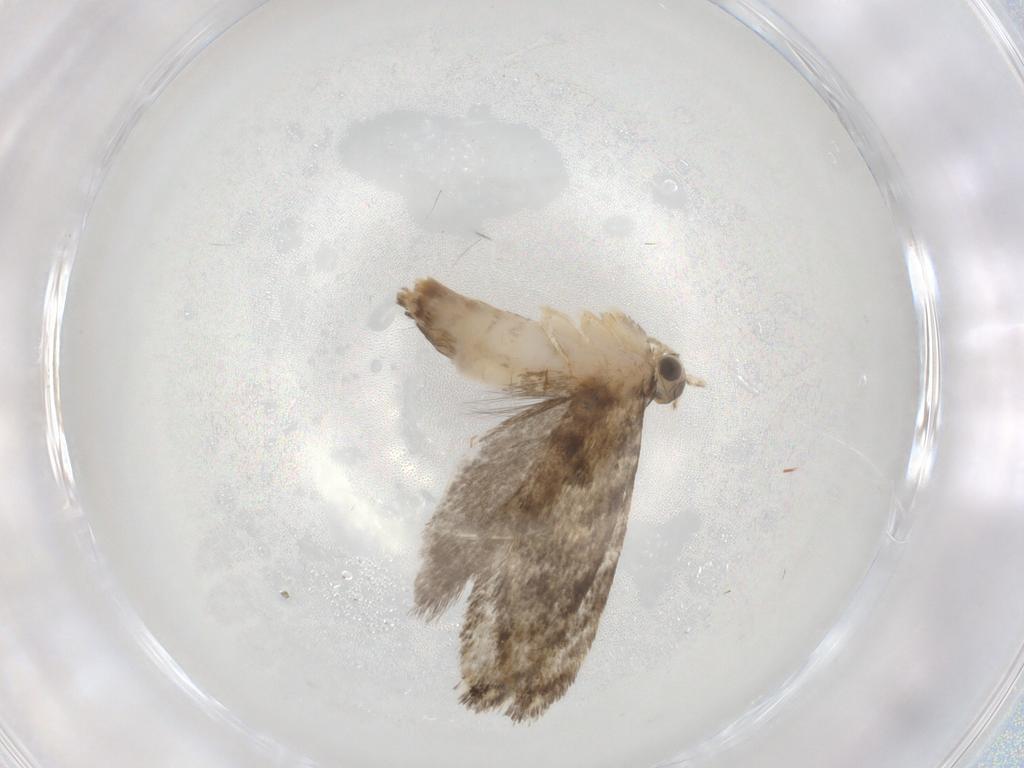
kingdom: Animalia
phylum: Arthropoda
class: Insecta
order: Lepidoptera
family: Tineidae
